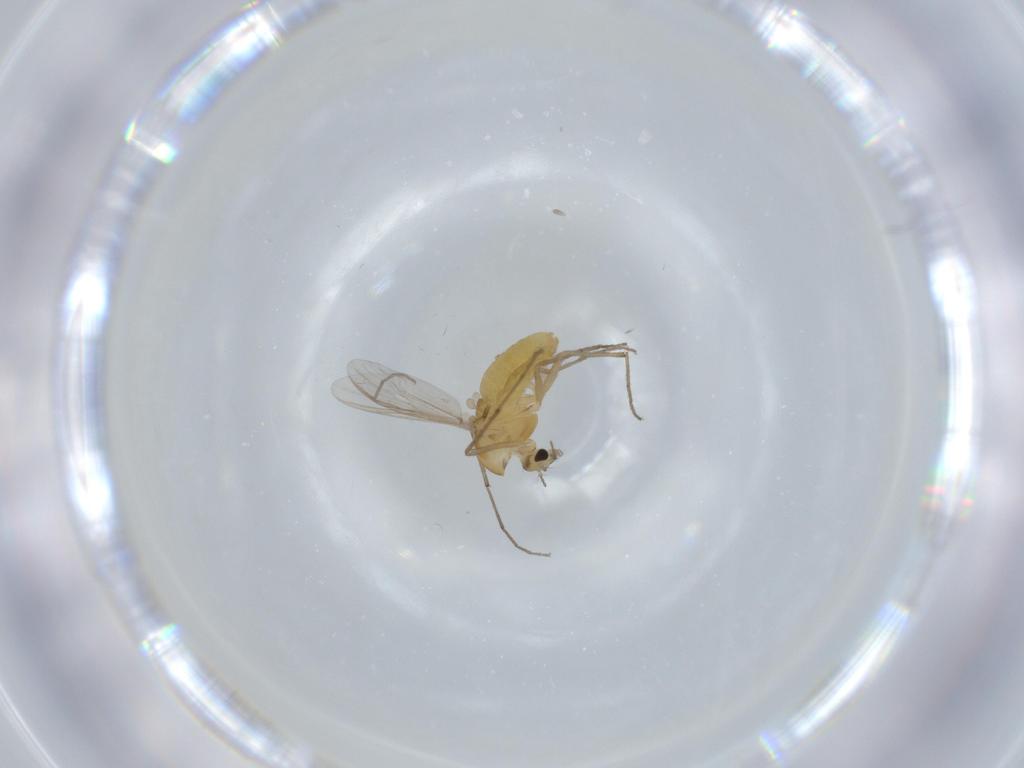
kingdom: Animalia
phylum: Arthropoda
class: Insecta
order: Diptera
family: Chironomidae
